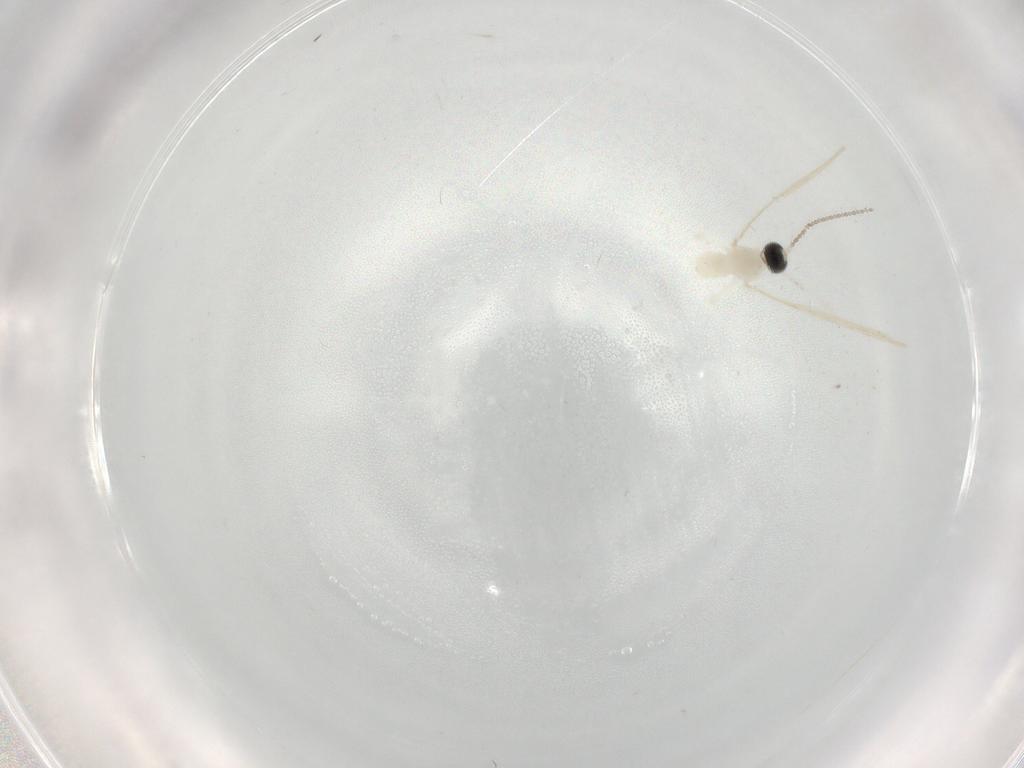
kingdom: Animalia
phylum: Arthropoda
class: Insecta
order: Diptera
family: Cecidomyiidae
